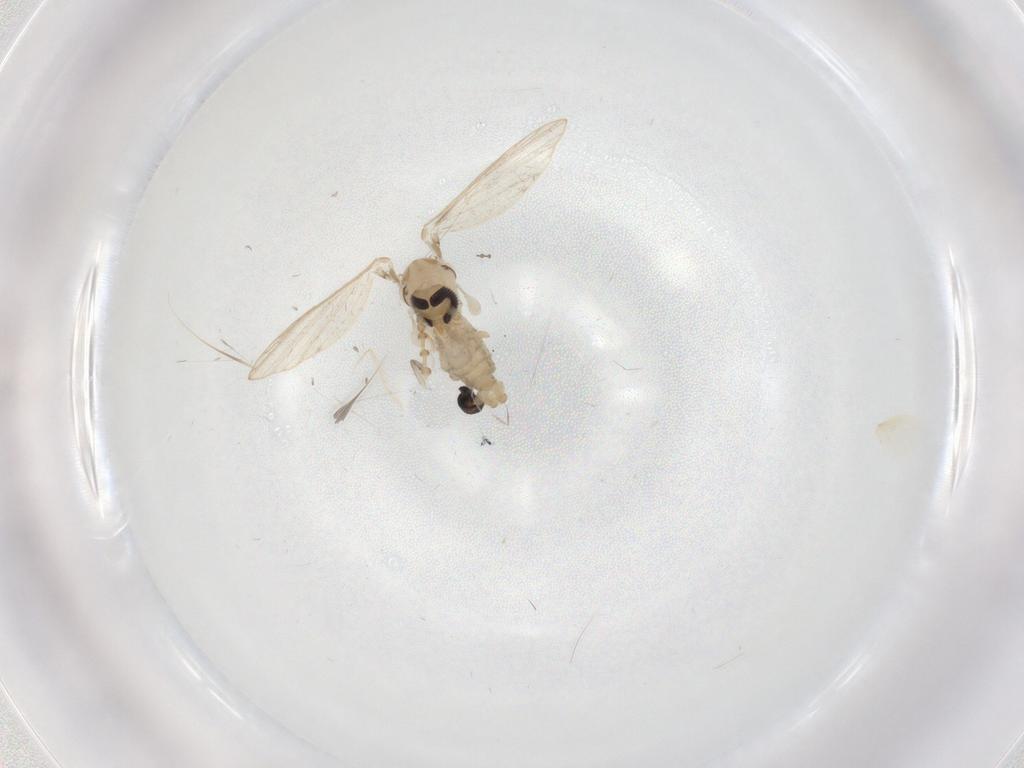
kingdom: Animalia
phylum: Arthropoda
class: Insecta
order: Diptera
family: Psychodidae
